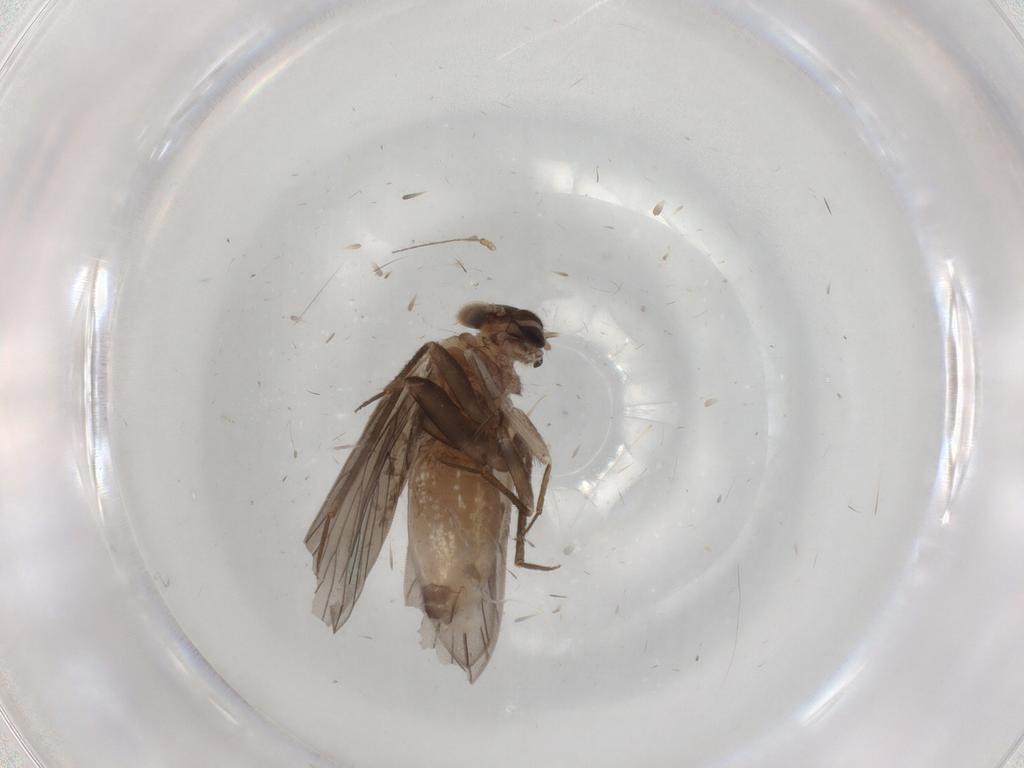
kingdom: Animalia
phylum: Arthropoda
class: Insecta
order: Psocodea
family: Lepidopsocidae
